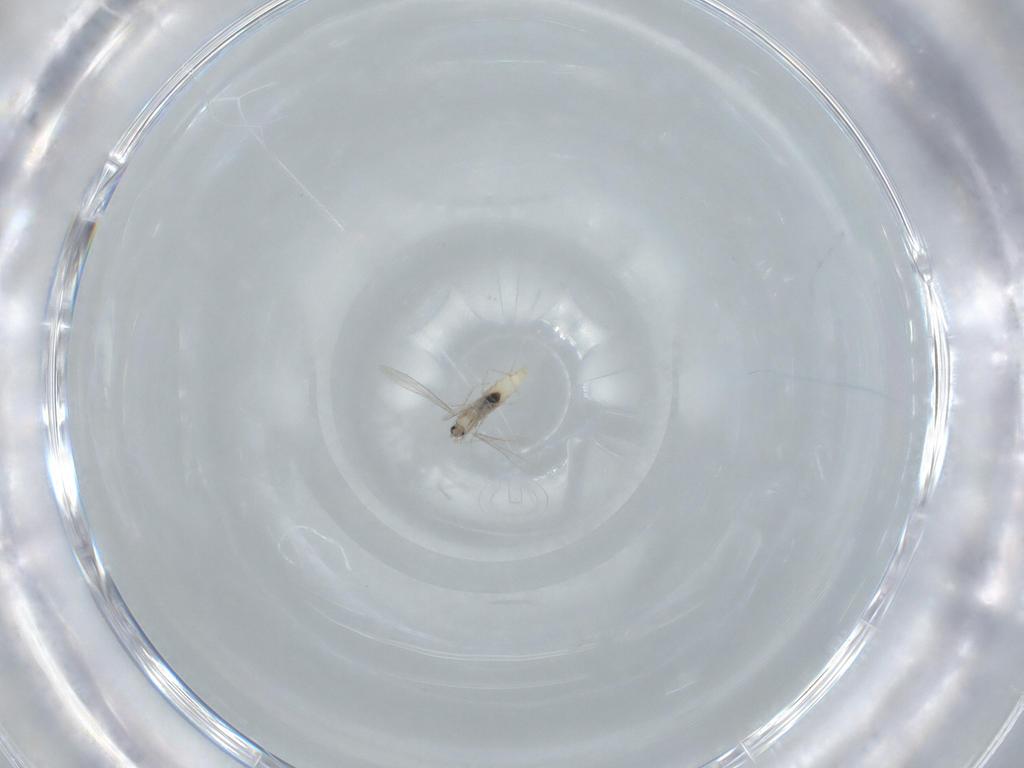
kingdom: Animalia
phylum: Arthropoda
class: Insecta
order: Diptera
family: Cecidomyiidae
